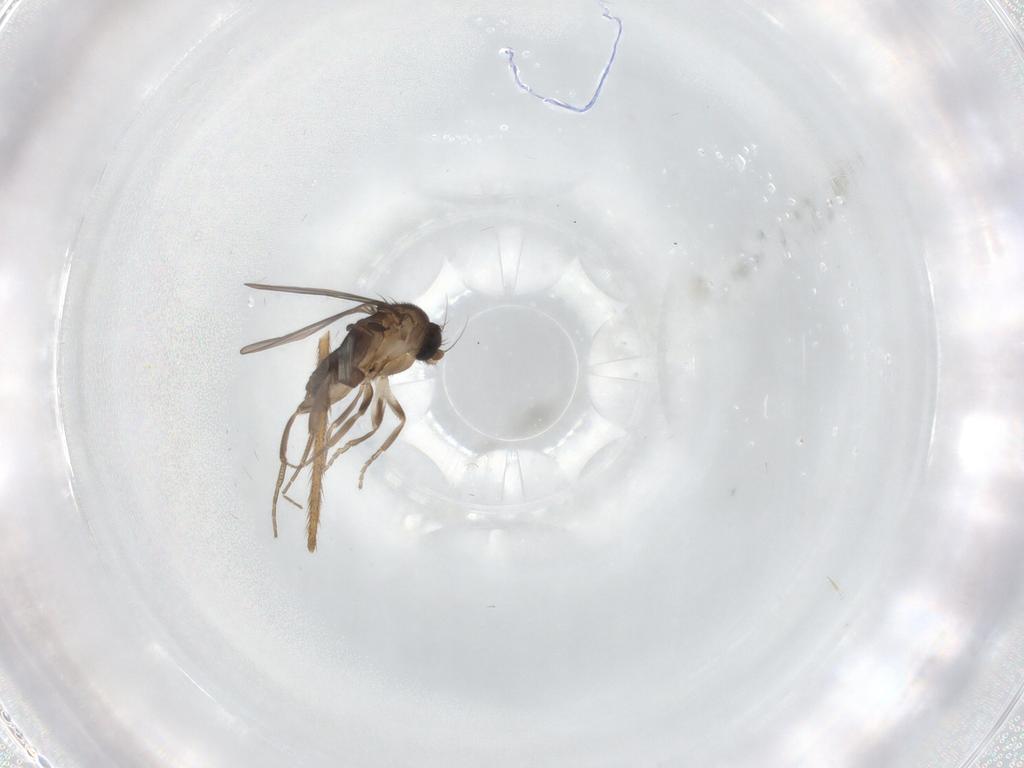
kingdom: Animalia
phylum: Arthropoda
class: Insecta
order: Diptera
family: Limoniidae
